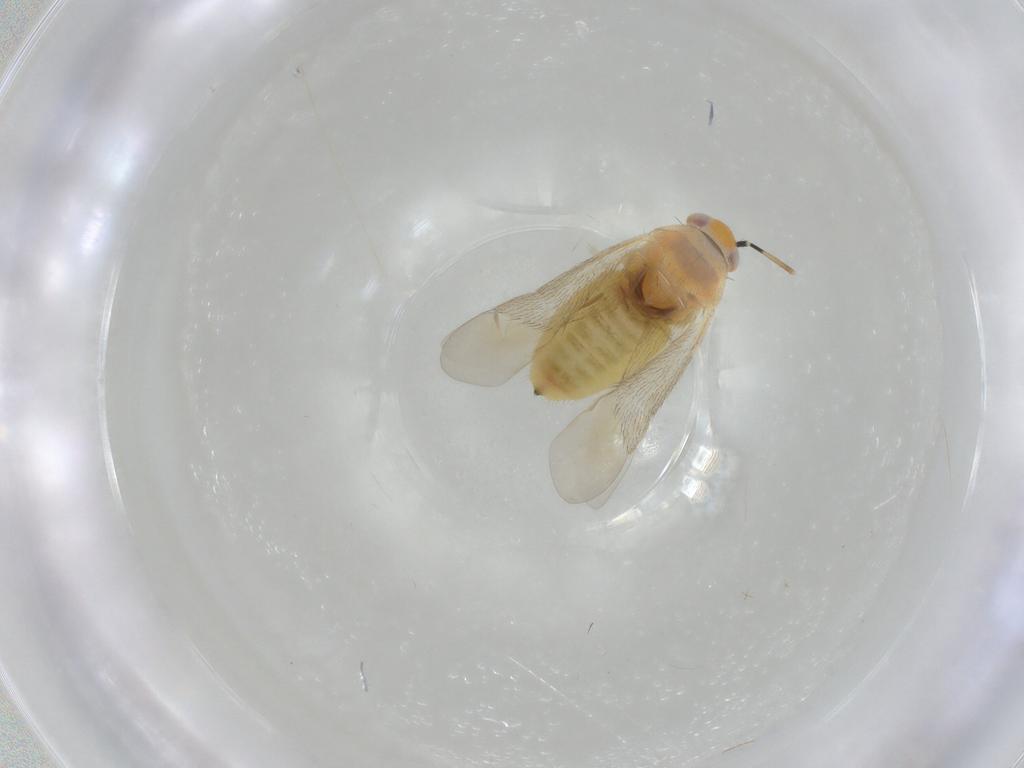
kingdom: Animalia
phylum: Arthropoda
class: Insecta
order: Hymenoptera
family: Braconidae
